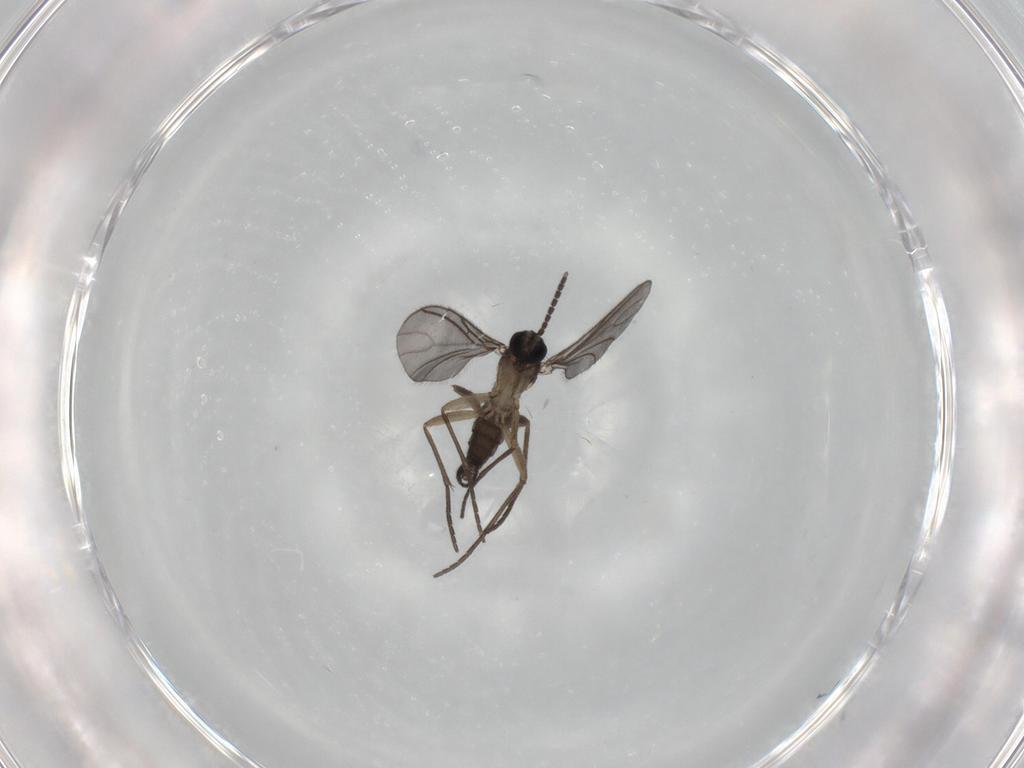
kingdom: Animalia
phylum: Arthropoda
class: Insecta
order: Diptera
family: Sciaridae
